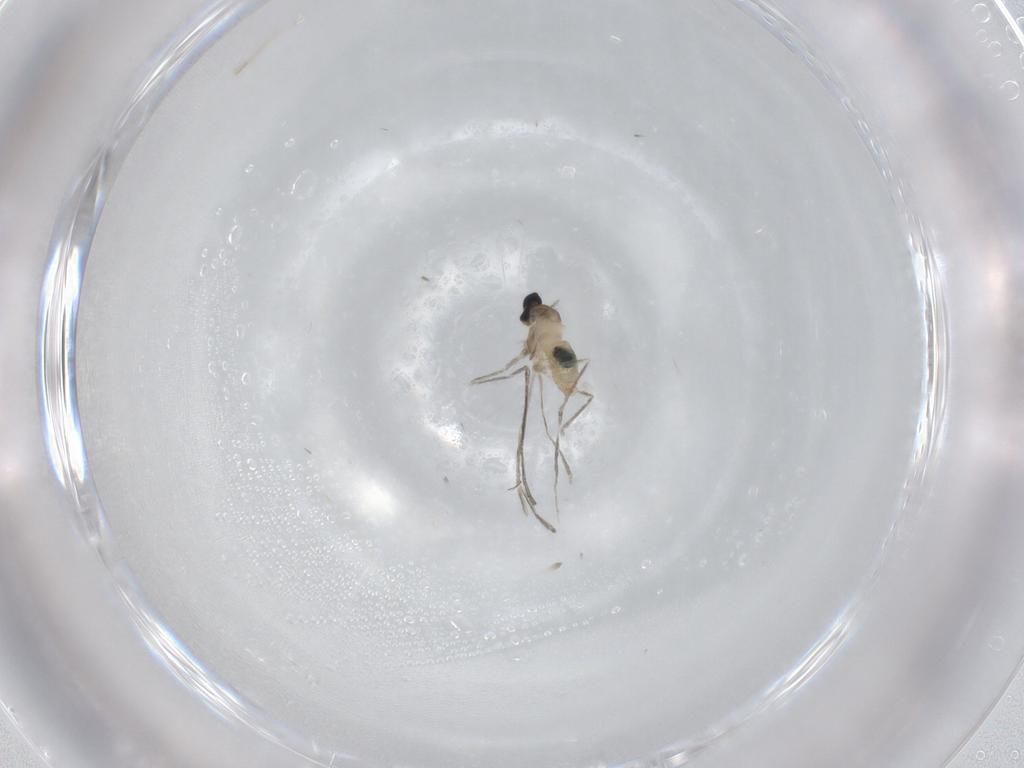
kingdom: Animalia
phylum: Arthropoda
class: Insecta
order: Diptera
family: Cecidomyiidae
